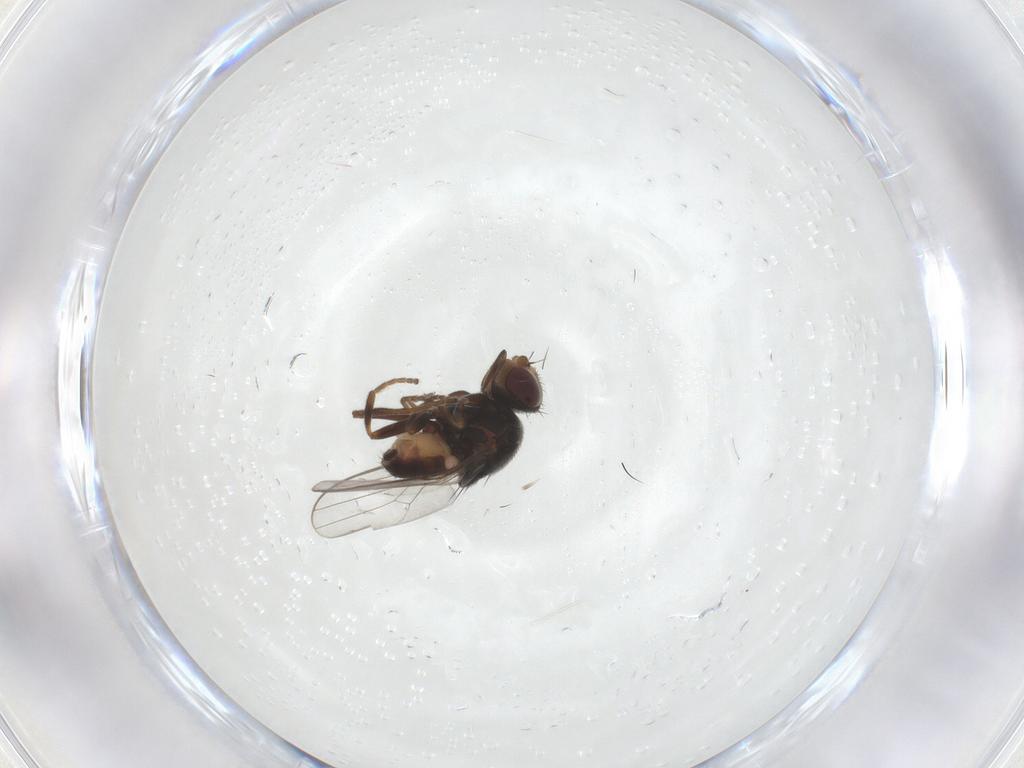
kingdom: Animalia
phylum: Arthropoda
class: Insecta
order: Diptera
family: Chloropidae
